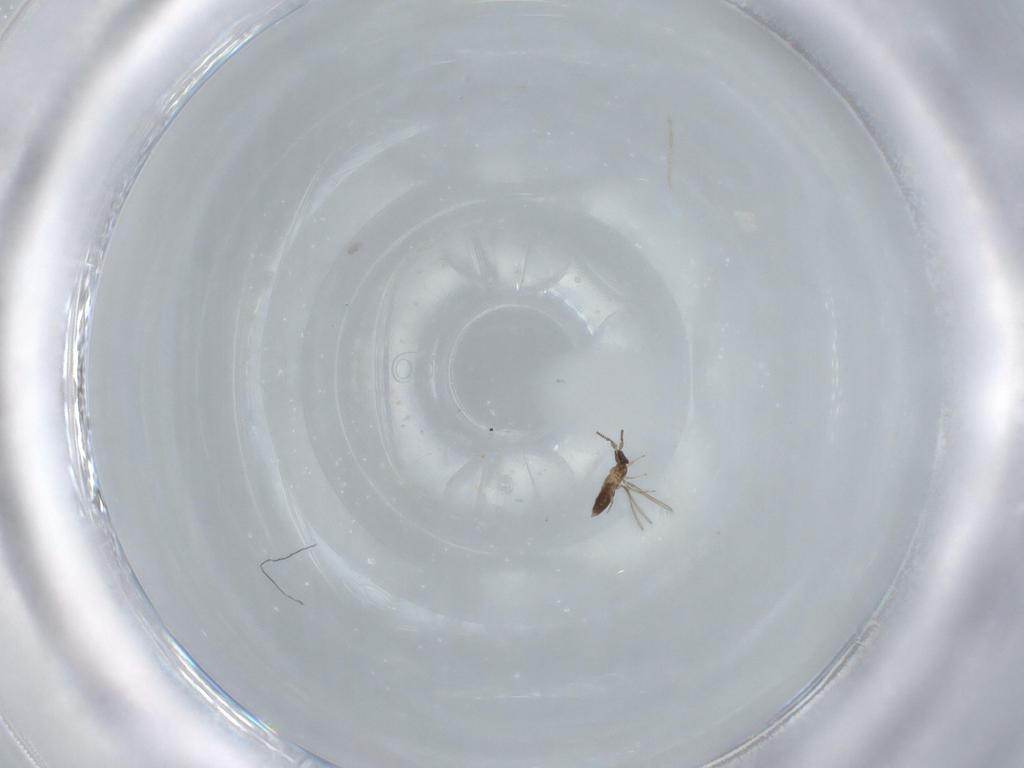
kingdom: Animalia
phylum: Arthropoda
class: Insecta
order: Hymenoptera
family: Mymaridae
